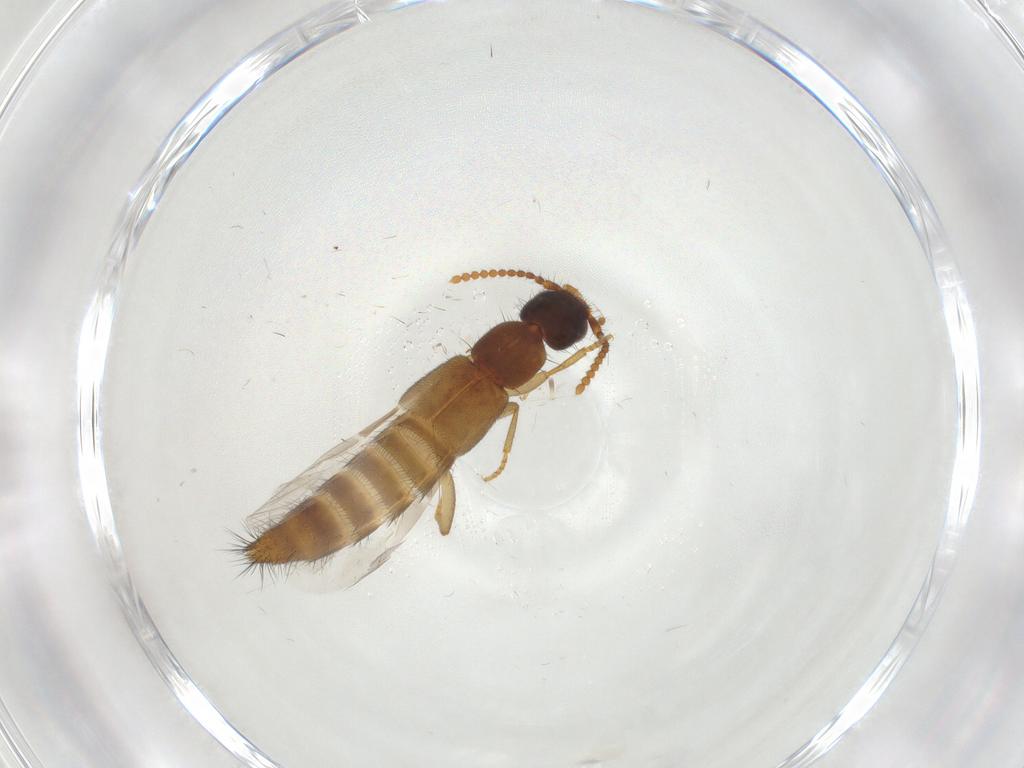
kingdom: Animalia
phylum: Arthropoda
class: Insecta
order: Coleoptera
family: Staphylinidae
